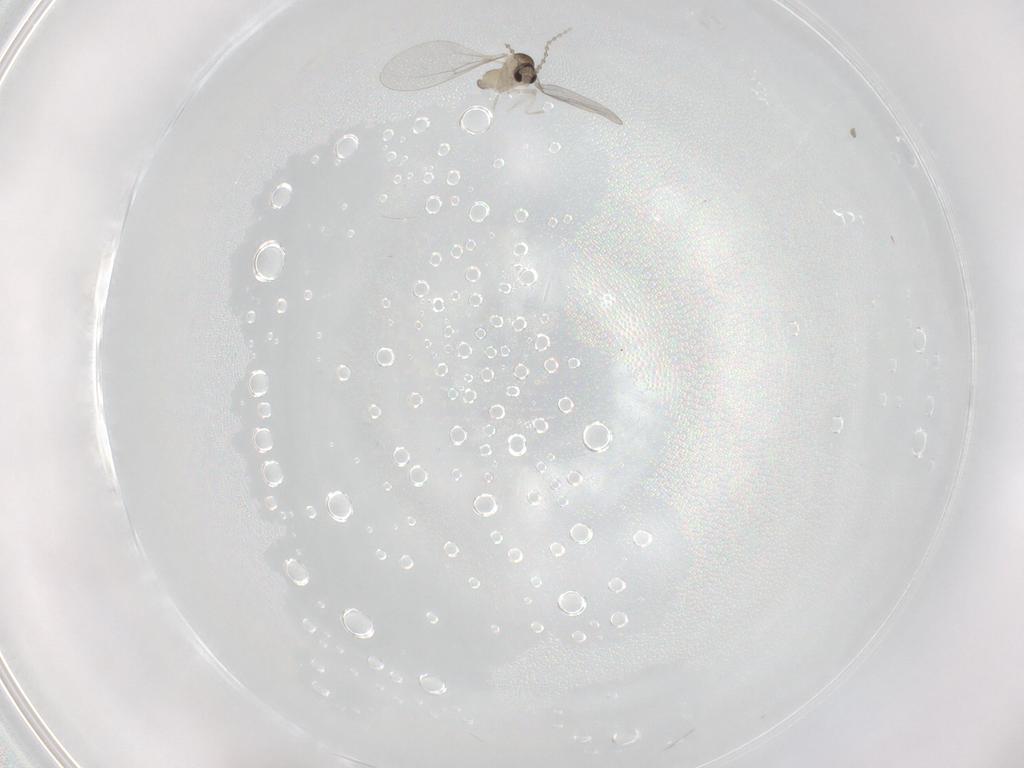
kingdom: Animalia
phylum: Arthropoda
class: Insecta
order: Diptera
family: Cecidomyiidae
